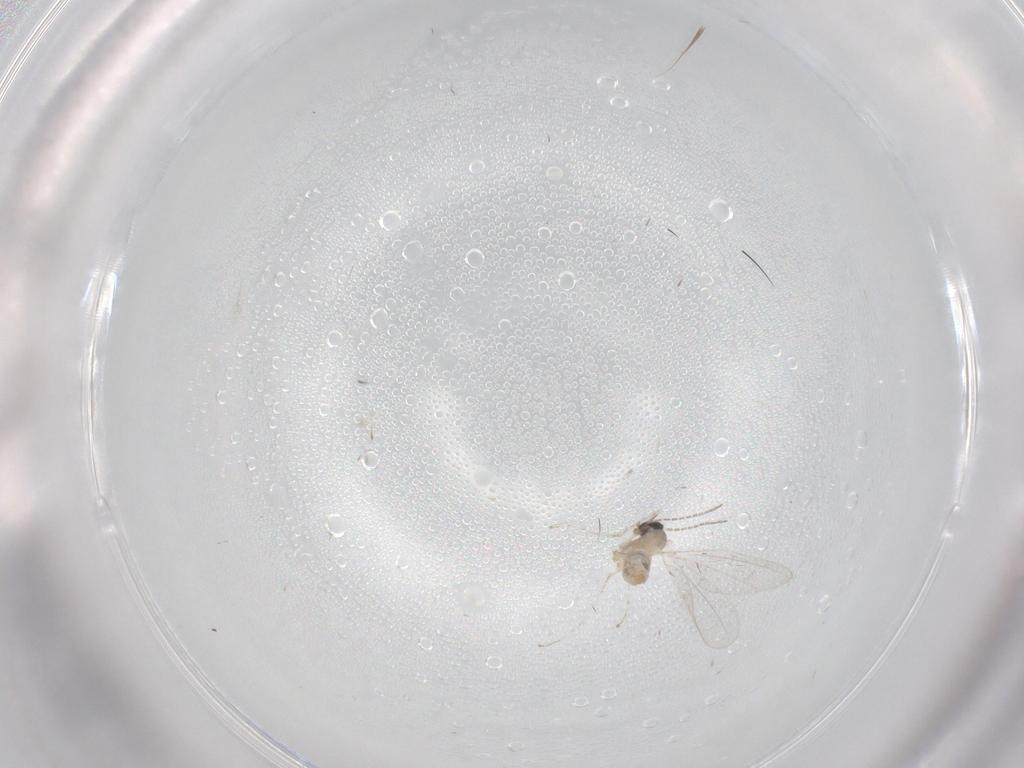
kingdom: Animalia
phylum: Arthropoda
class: Insecta
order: Diptera
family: Cecidomyiidae
